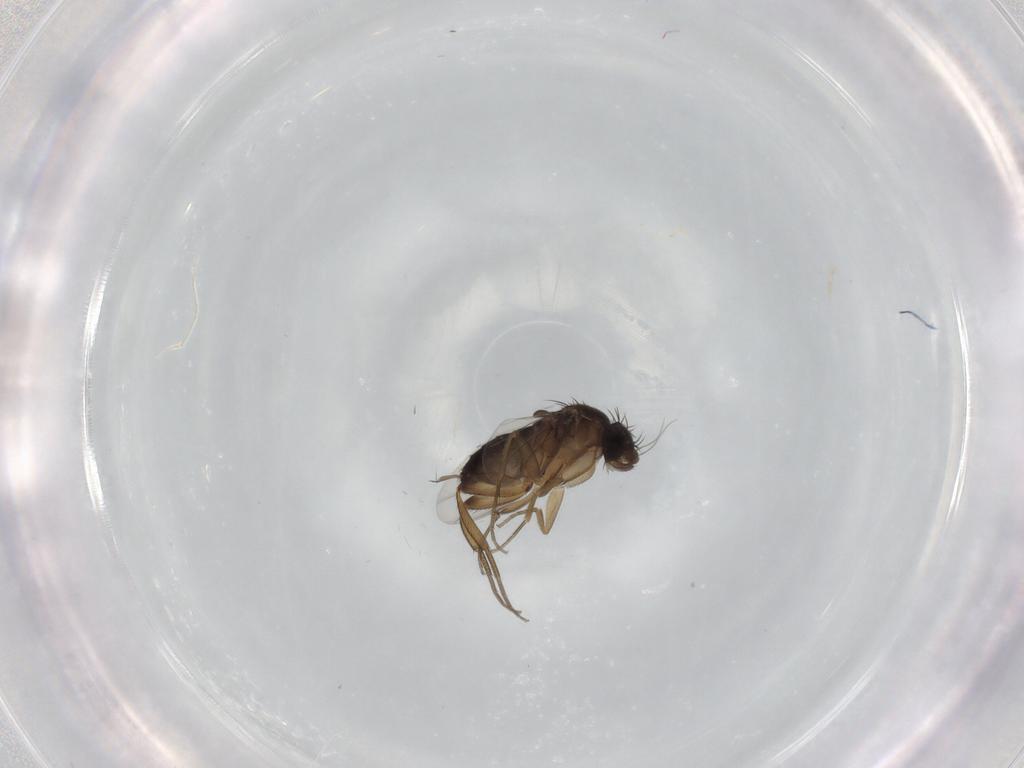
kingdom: Animalia
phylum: Arthropoda
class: Insecta
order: Diptera
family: Phoridae
